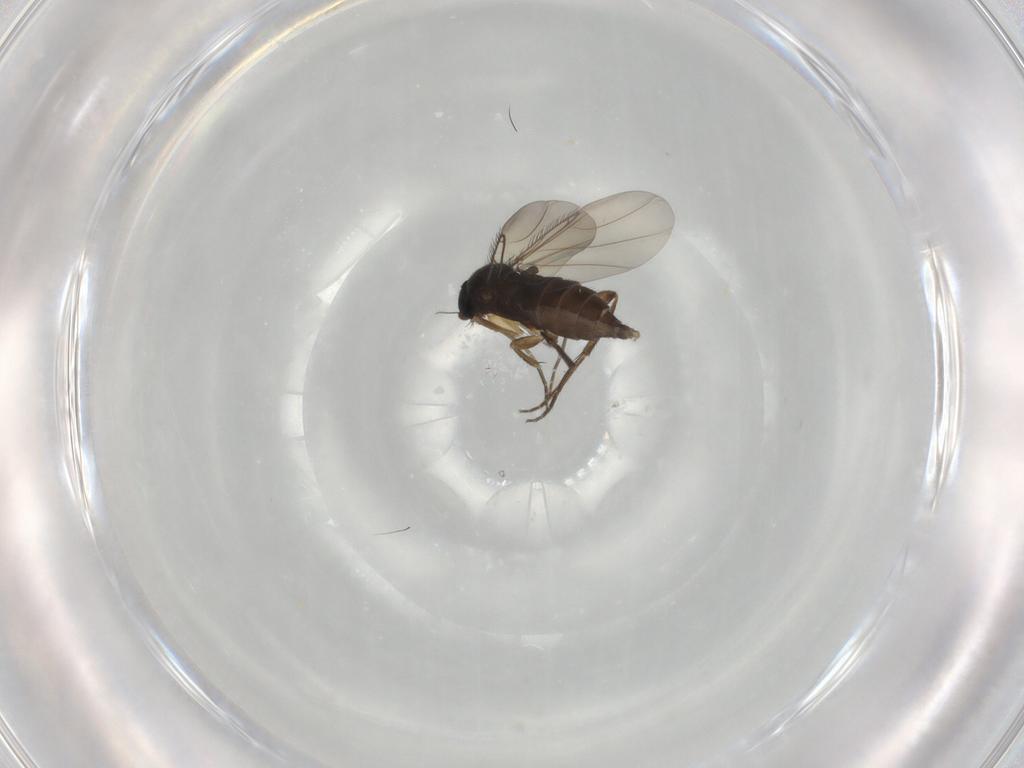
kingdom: Animalia
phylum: Arthropoda
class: Insecta
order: Diptera
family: Phoridae
